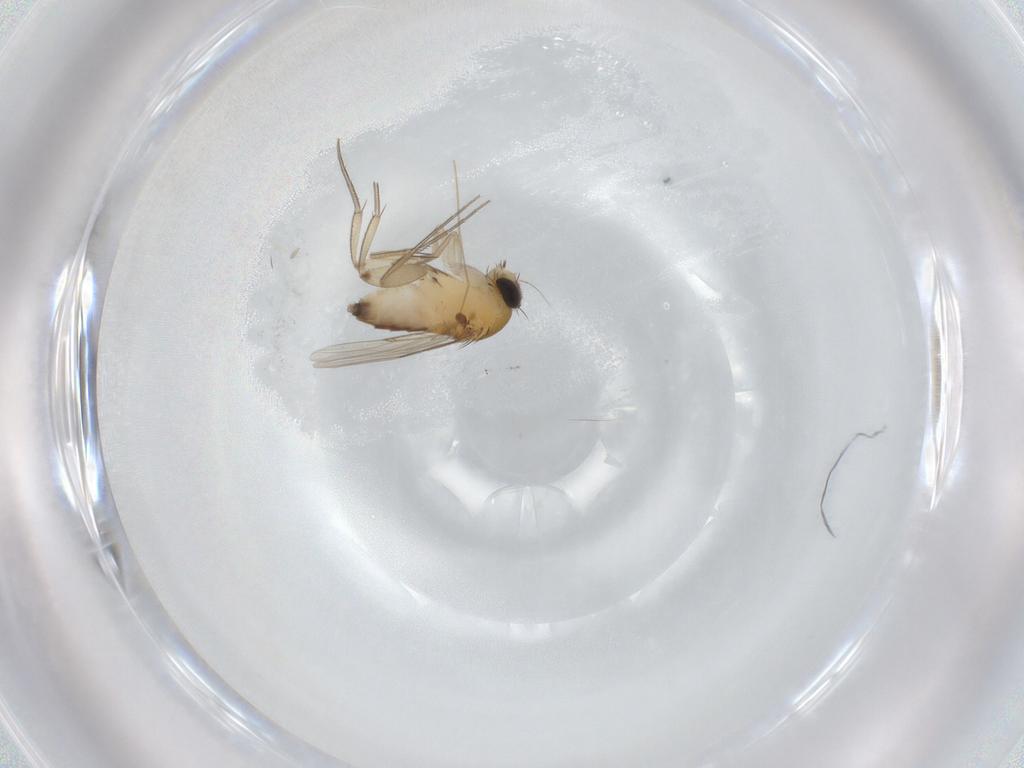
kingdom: Animalia
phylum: Arthropoda
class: Insecta
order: Diptera
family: Phoridae
